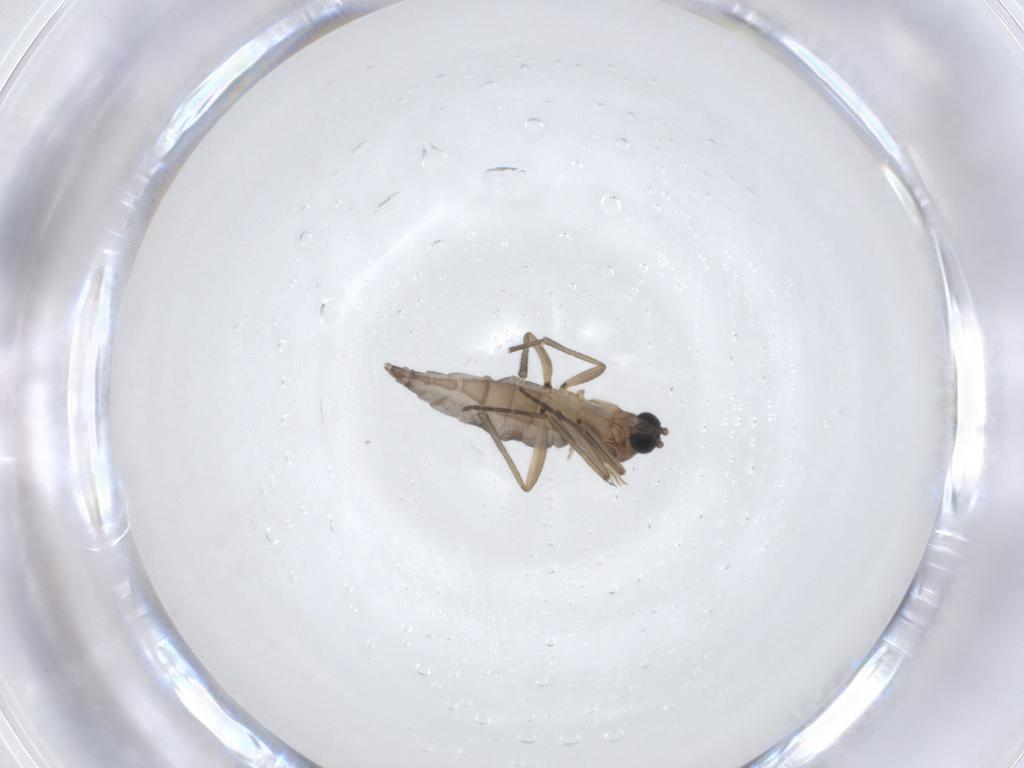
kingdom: Animalia
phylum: Arthropoda
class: Insecta
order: Diptera
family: Sciaridae
